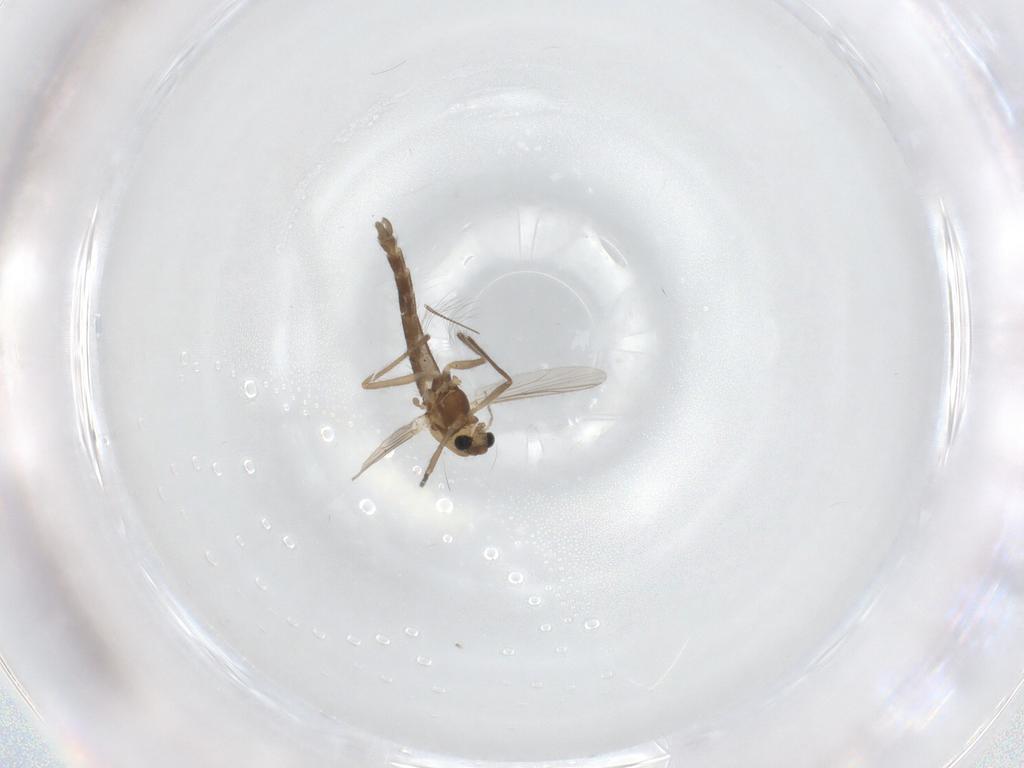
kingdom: Animalia
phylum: Arthropoda
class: Insecta
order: Diptera
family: Chironomidae
